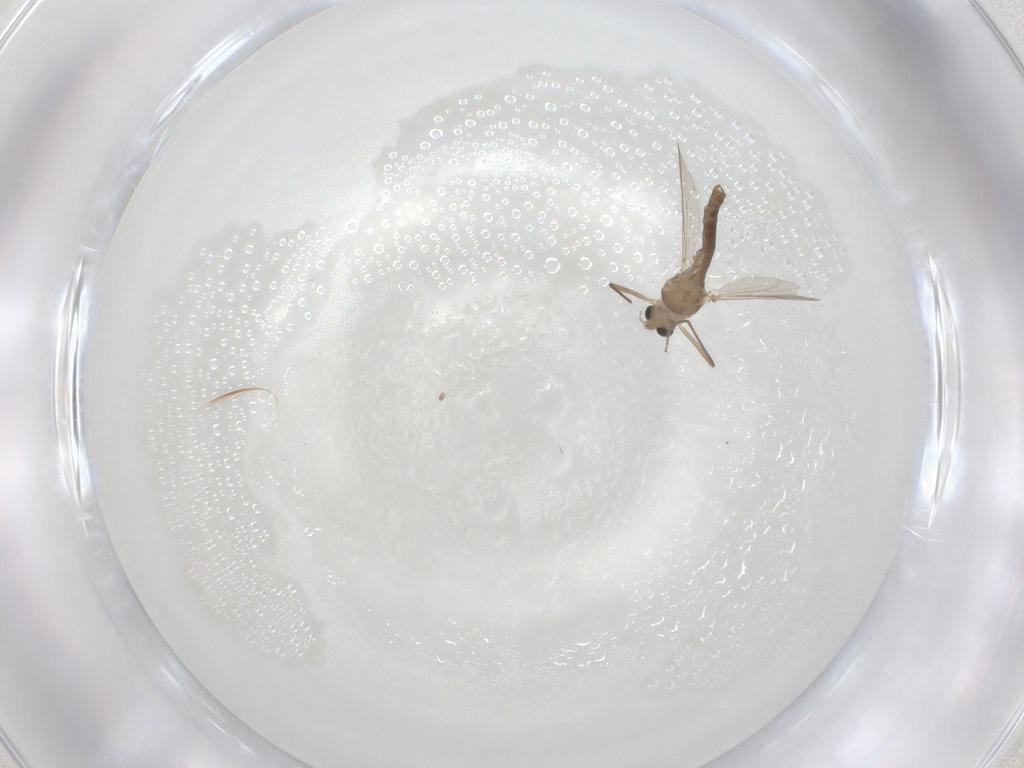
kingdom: Animalia
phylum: Arthropoda
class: Insecta
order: Diptera
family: Chironomidae
